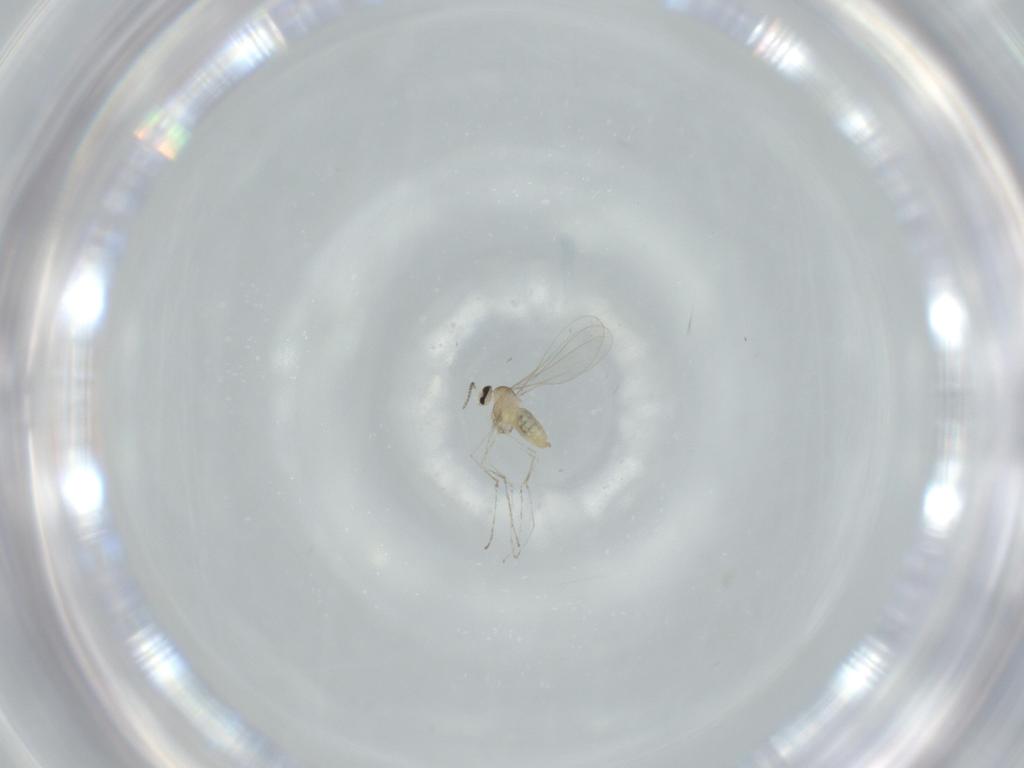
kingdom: Animalia
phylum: Arthropoda
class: Insecta
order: Diptera
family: Cecidomyiidae
